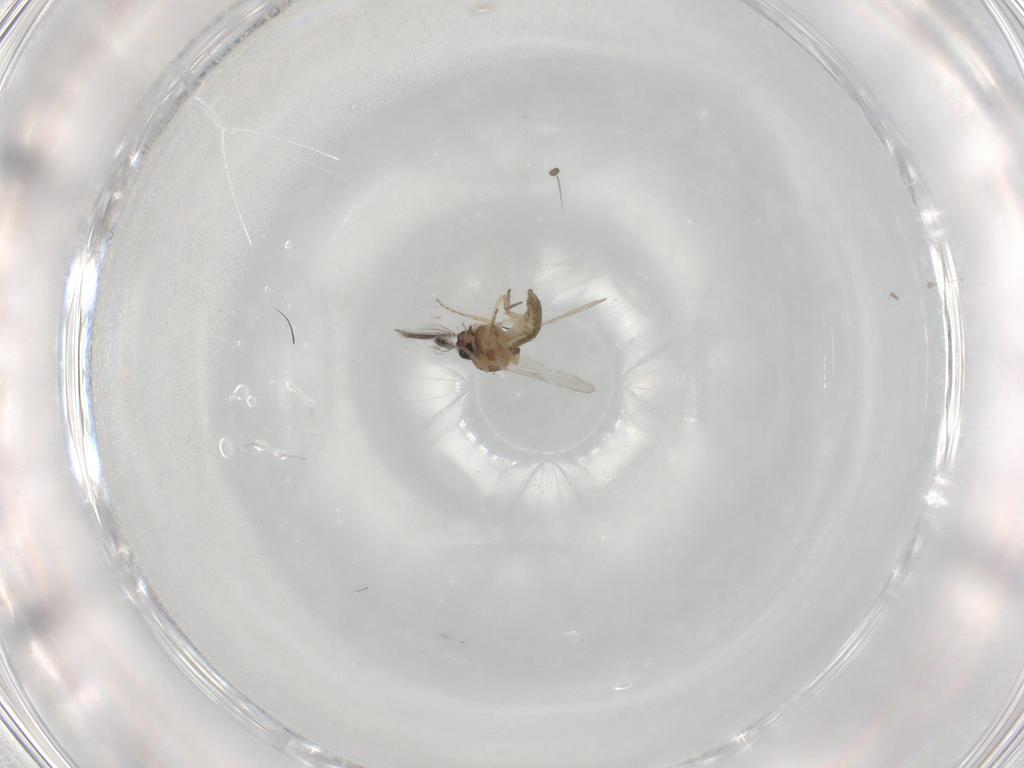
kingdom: Animalia
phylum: Arthropoda
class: Insecta
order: Diptera
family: Ceratopogonidae
